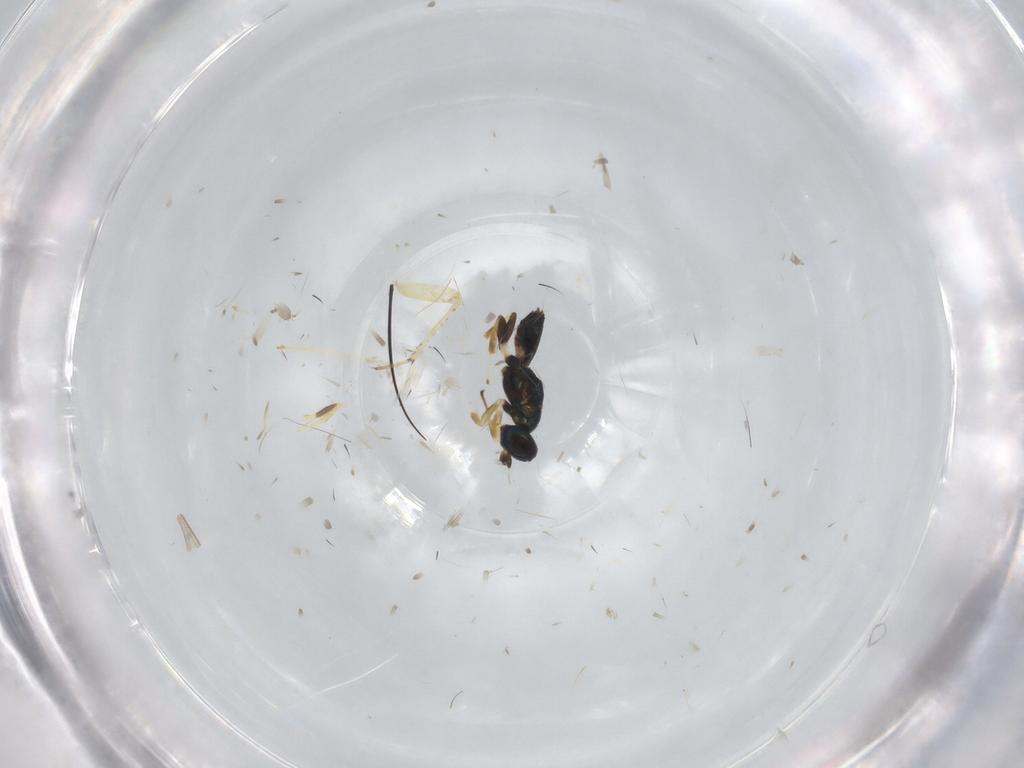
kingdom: Animalia
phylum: Arthropoda
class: Insecta
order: Hymenoptera
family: Eupelmidae
